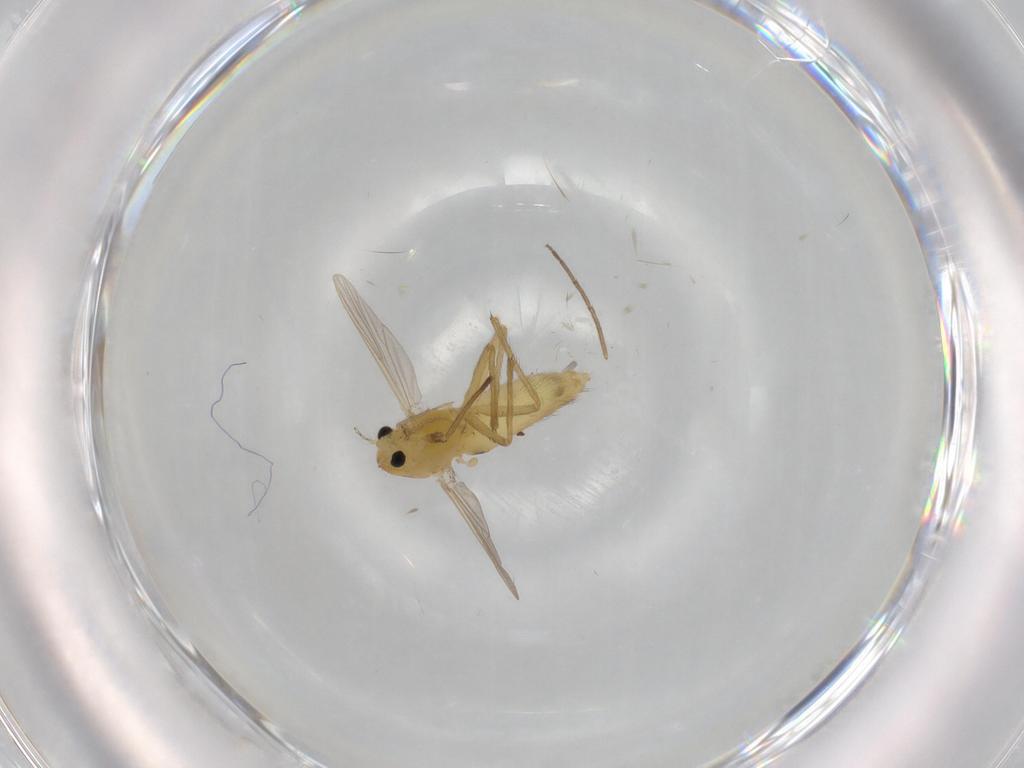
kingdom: Animalia
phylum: Arthropoda
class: Insecta
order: Diptera
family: Chironomidae
